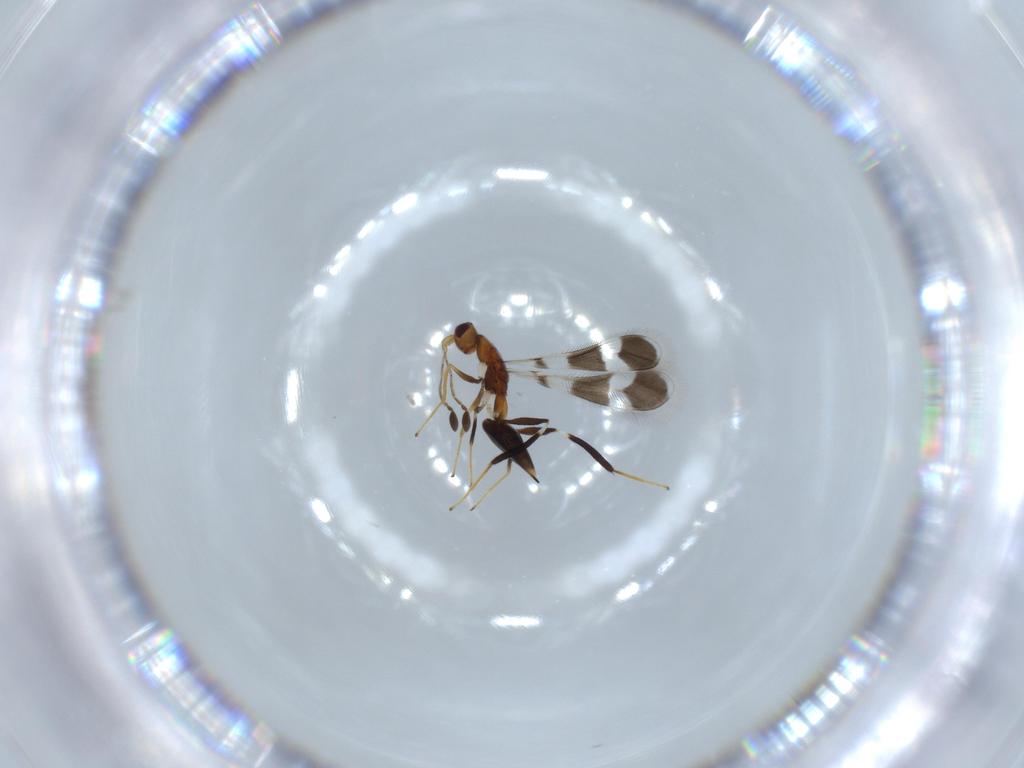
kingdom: Animalia
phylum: Arthropoda
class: Insecta
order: Hymenoptera
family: Mymaridae
